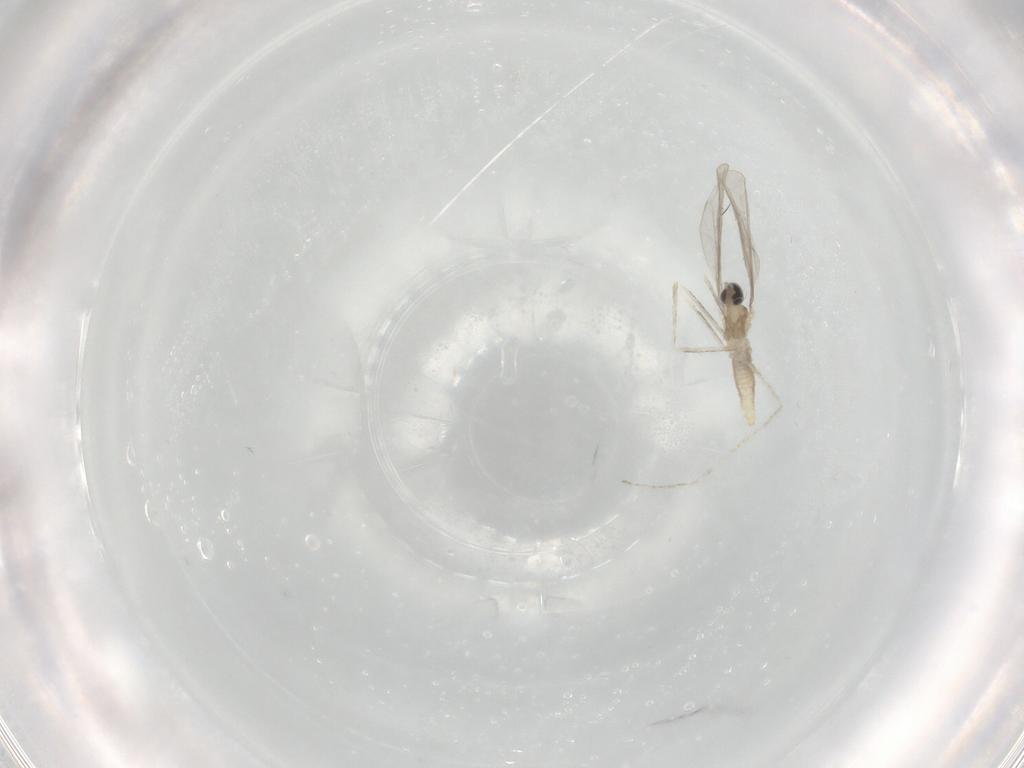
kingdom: Animalia
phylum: Arthropoda
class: Insecta
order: Diptera
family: Cecidomyiidae
